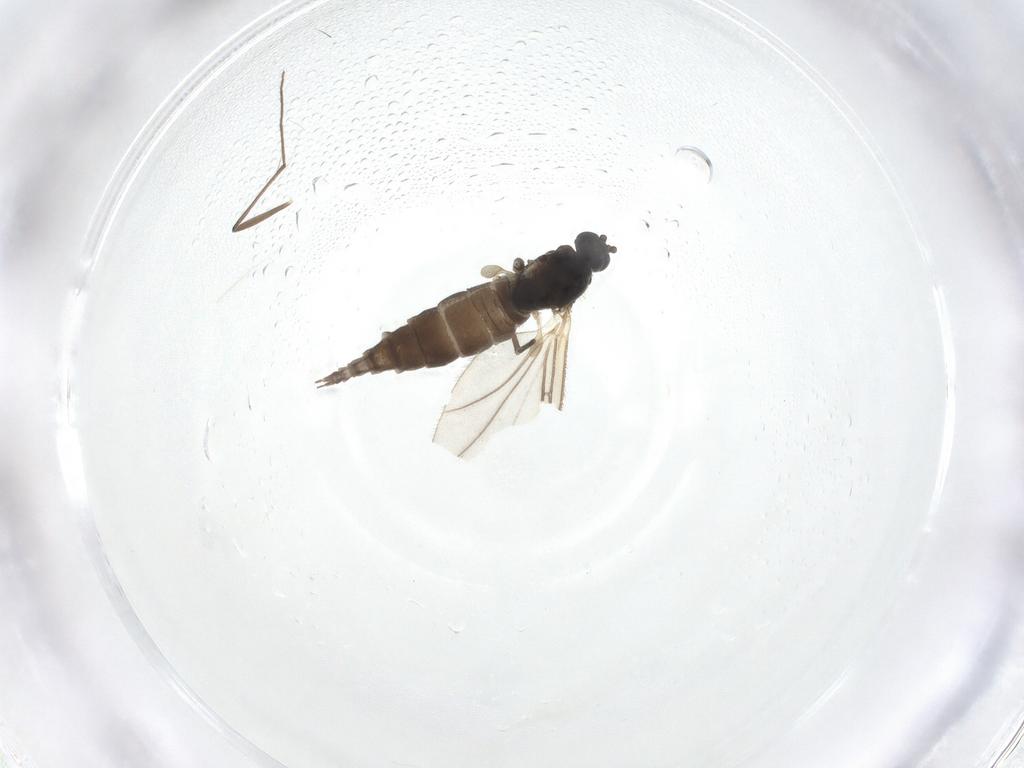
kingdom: Animalia
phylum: Arthropoda
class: Insecta
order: Diptera
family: Sciaridae
